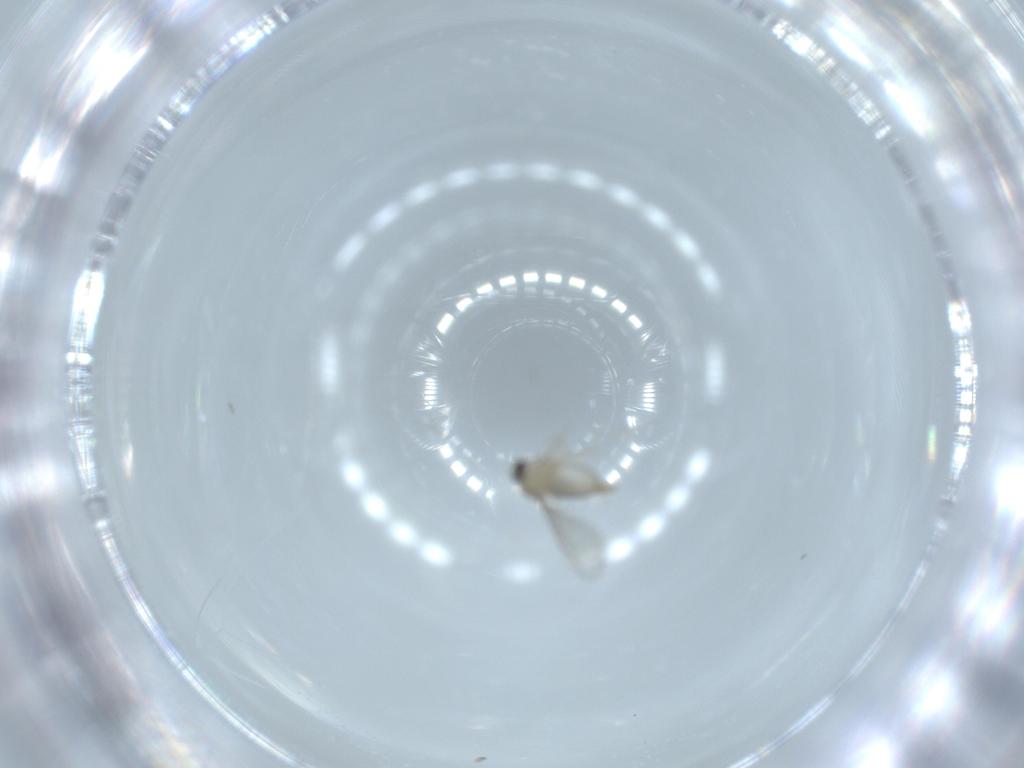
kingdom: Animalia
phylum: Arthropoda
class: Insecta
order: Diptera
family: Cecidomyiidae
